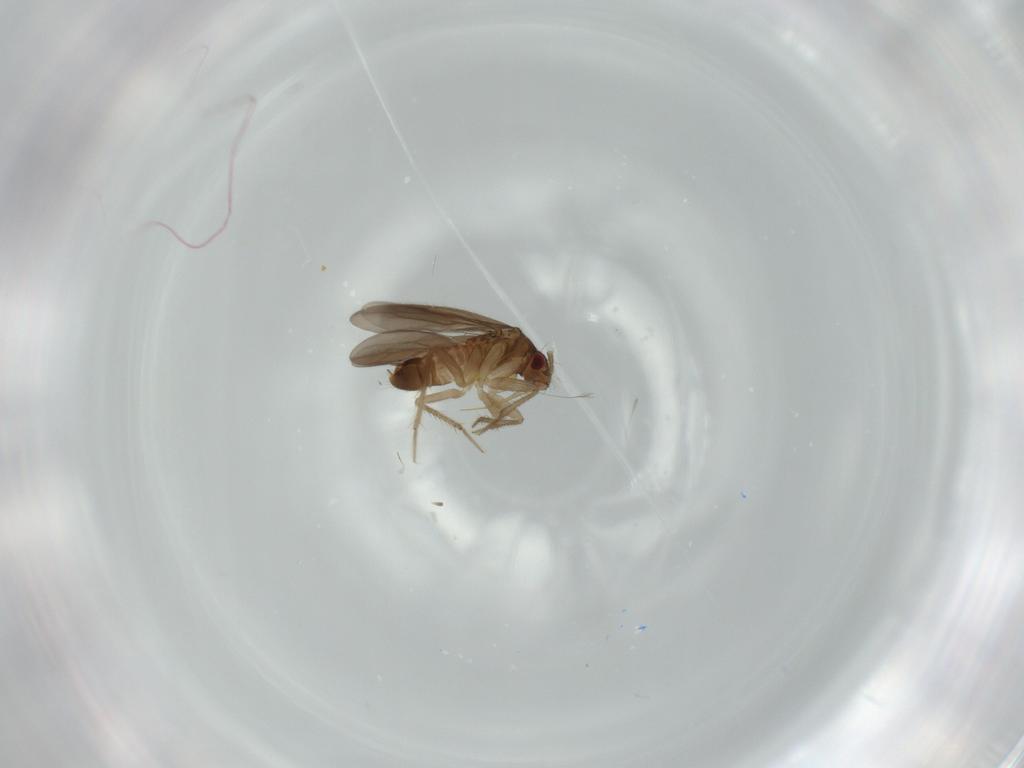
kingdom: Animalia
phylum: Arthropoda
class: Insecta
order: Hemiptera
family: Ceratocombidae
